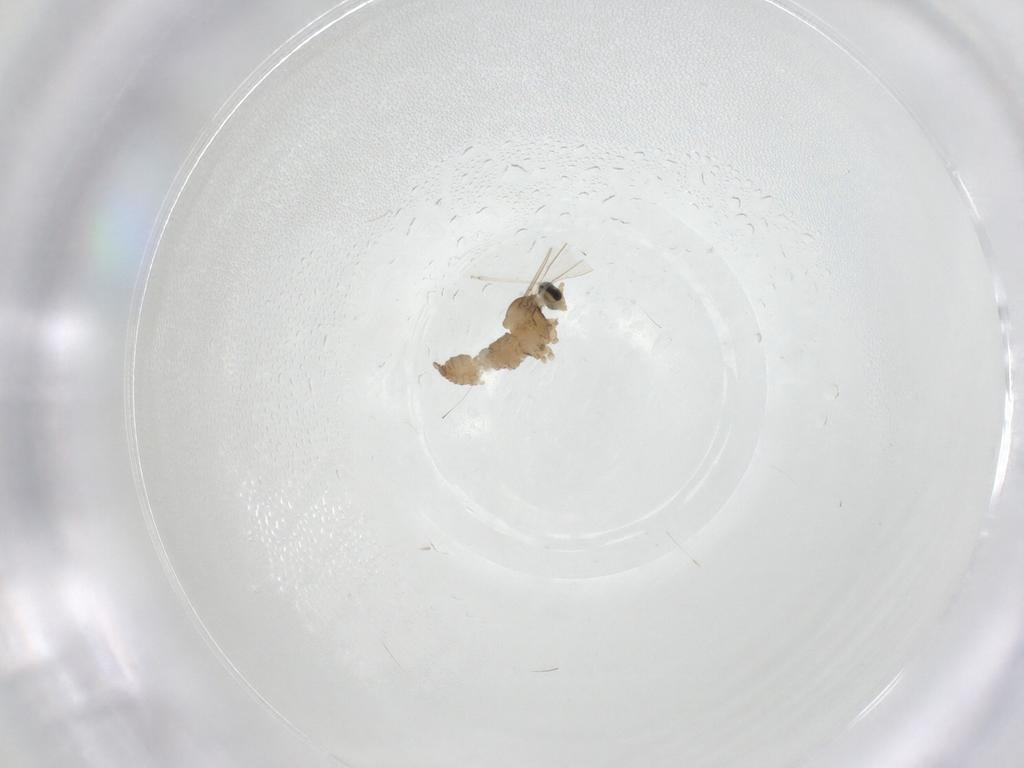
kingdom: Animalia
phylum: Arthropoda
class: Insecta
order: Diptera
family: Cecidomyiidae
